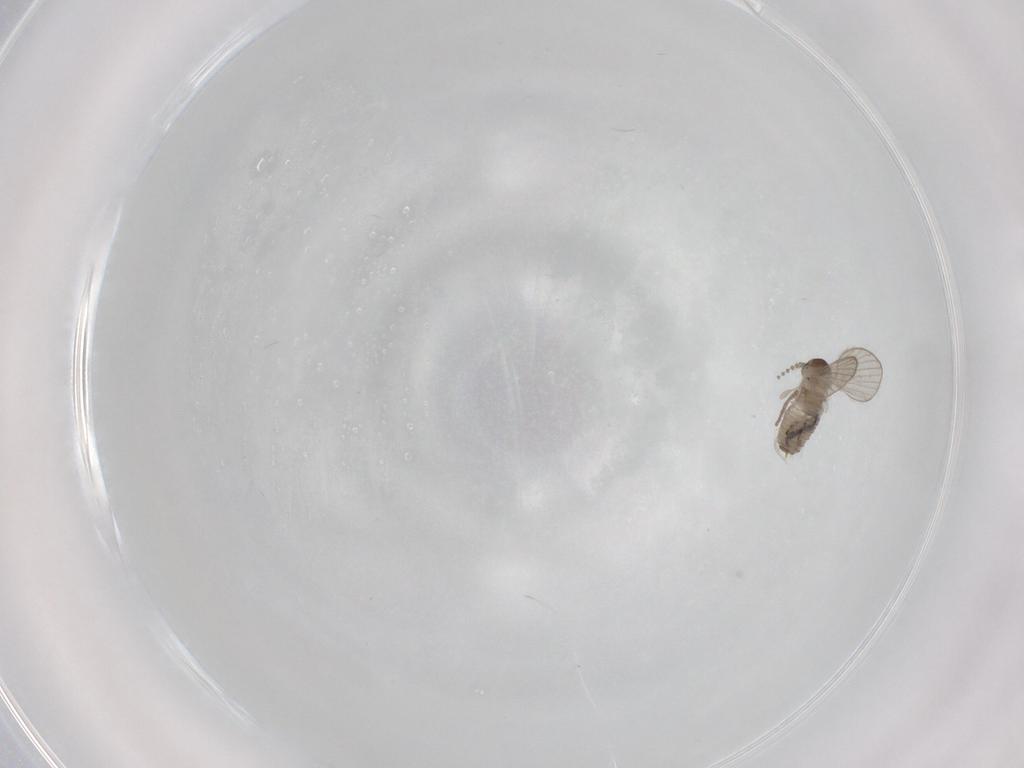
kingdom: Animalia
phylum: Arthropoda
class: Insecta
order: Diptera
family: Psychodidae
